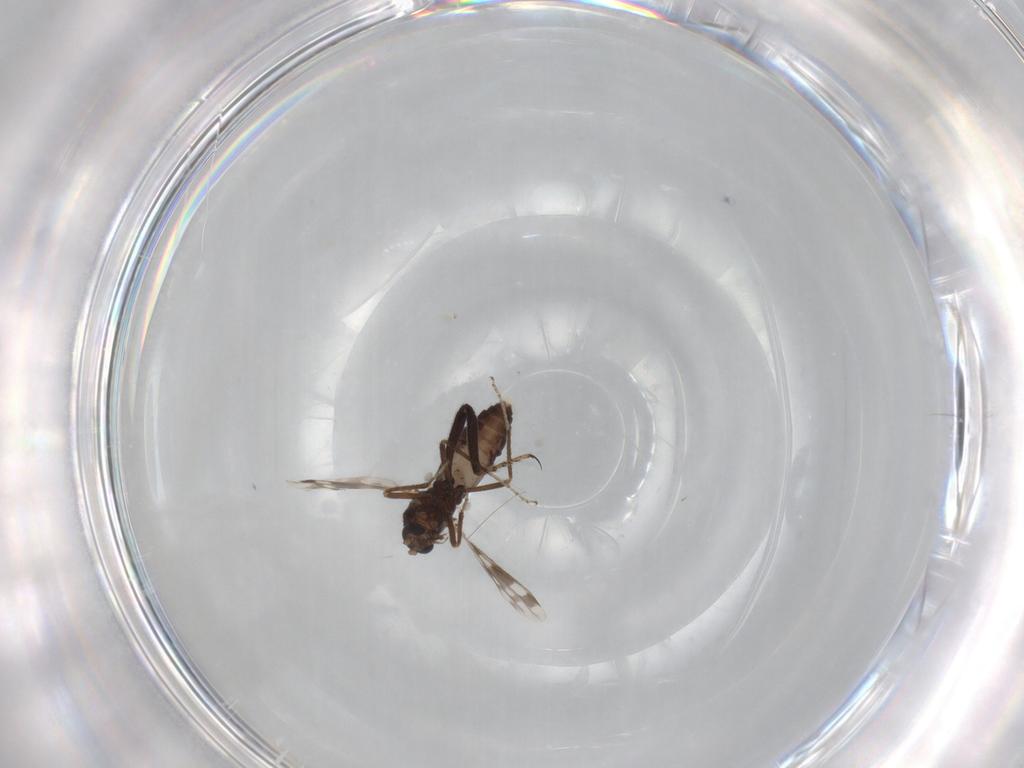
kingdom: Animalia
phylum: Arthropoda
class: Insecta
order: Diptera
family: Ceratopogonidae
